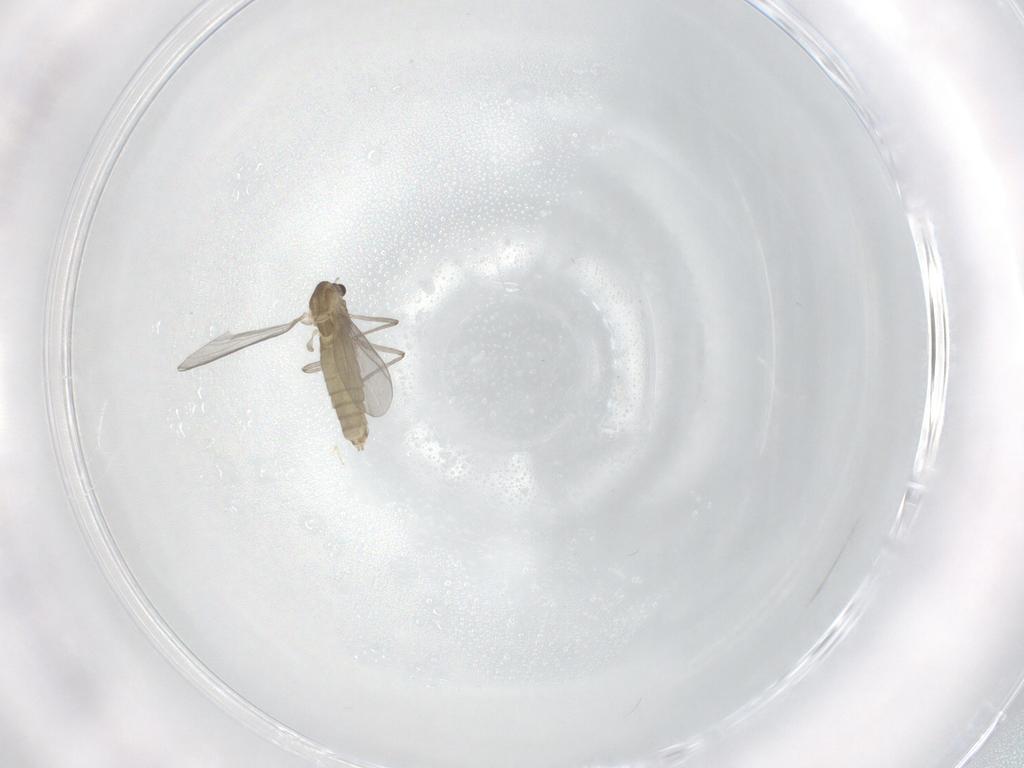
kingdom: Animalia
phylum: Arthropoda
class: Insecta
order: Diptera
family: Chironomidae
